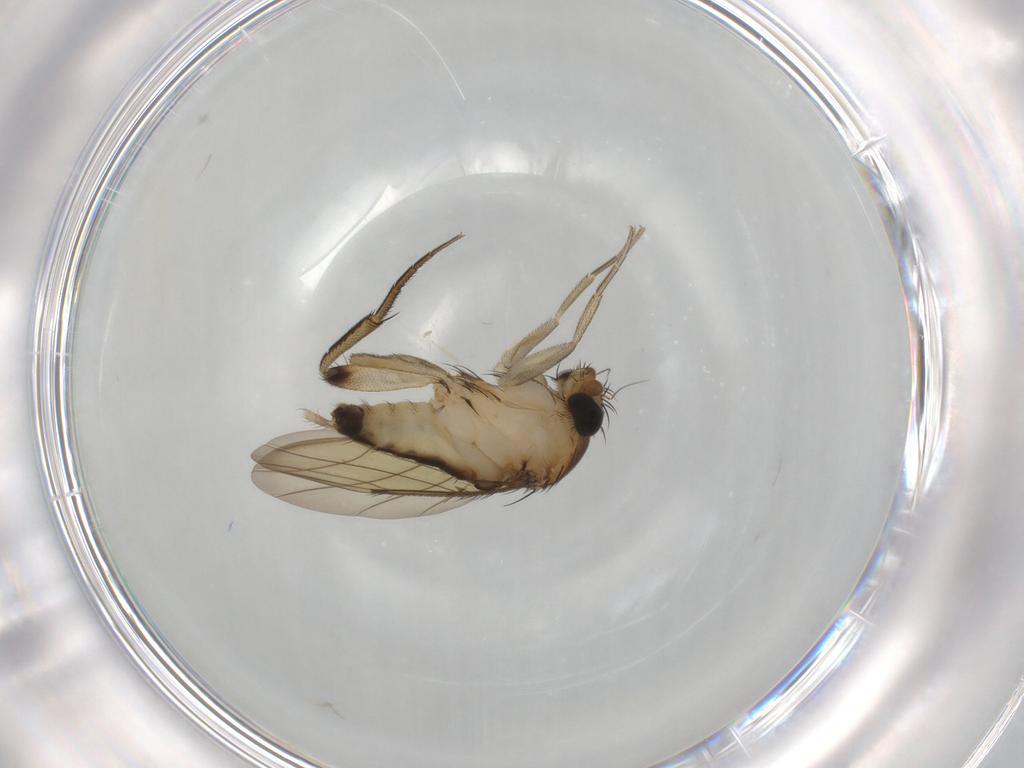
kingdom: Animalia
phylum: Arthropoda
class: Insecta
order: Diptera
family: Phoridae
